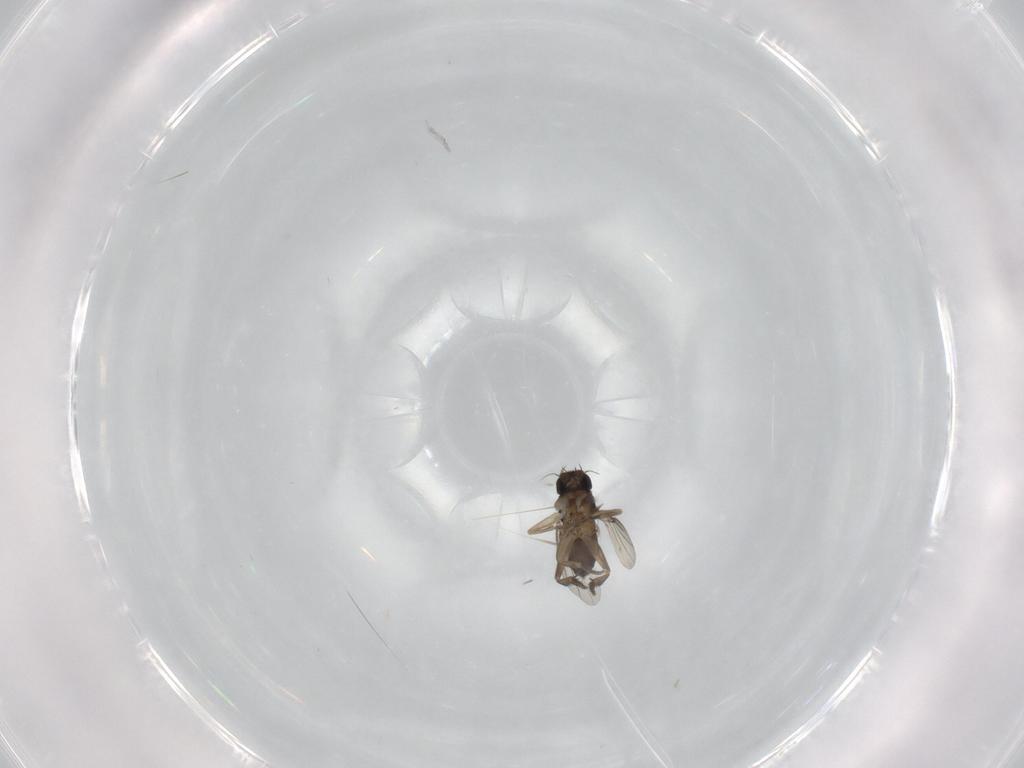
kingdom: Animalia
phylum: Arthropoda
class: Insecta
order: Diptera
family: Phoridae
